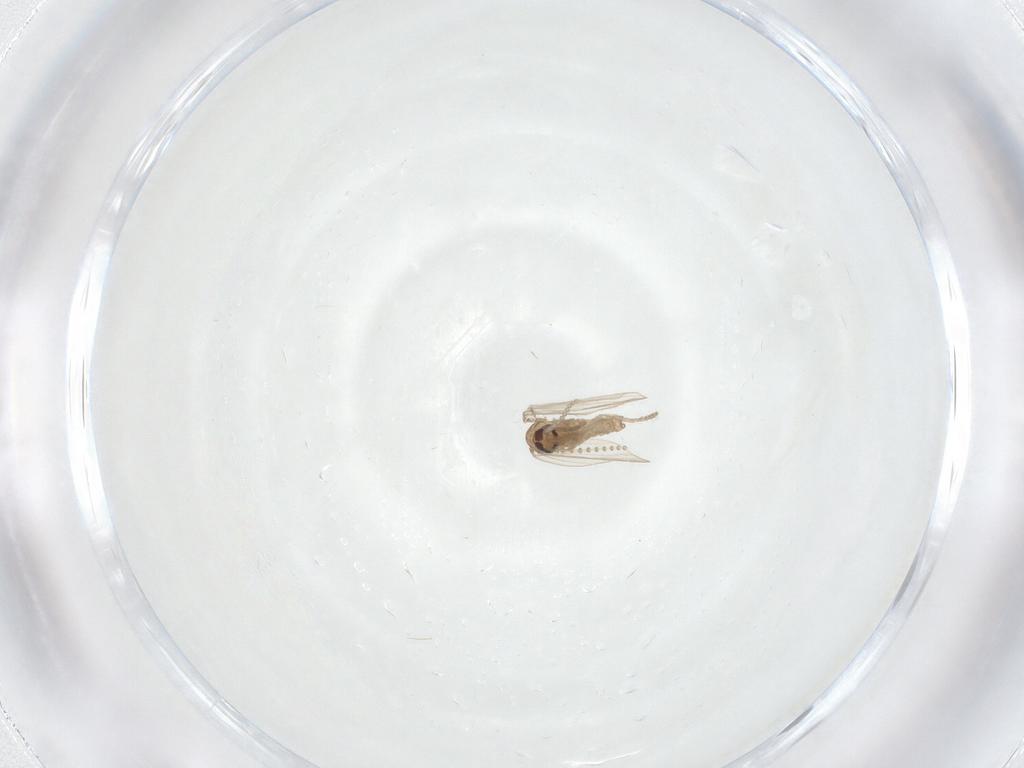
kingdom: Animalia
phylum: Arthropoda
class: Insecta
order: Diptera
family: Psychodidae
